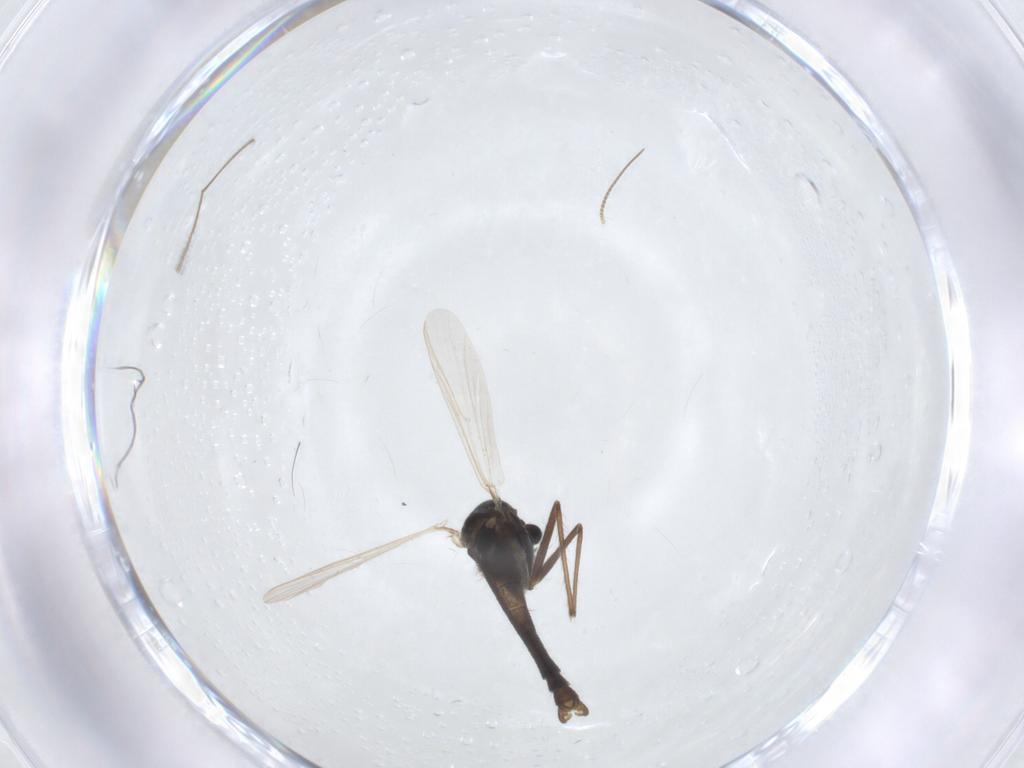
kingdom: Animalia
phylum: Arthropoda
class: Insecta
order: Diptera
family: Chironomidae
